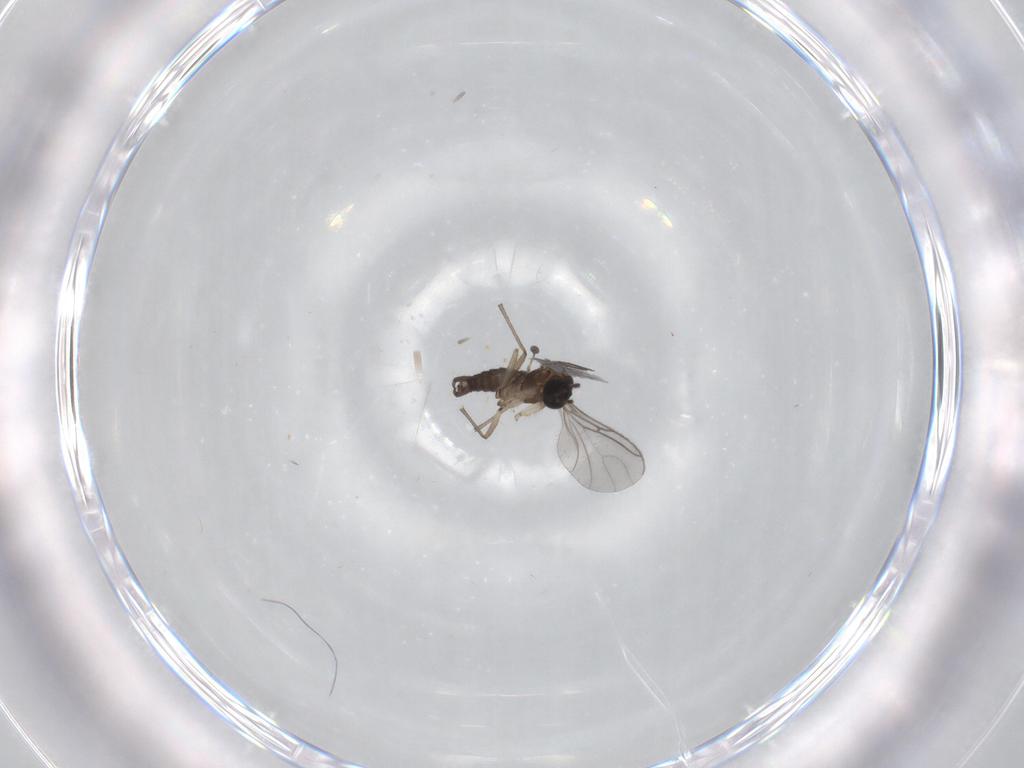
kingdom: Animalia
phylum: Arthropoda
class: Insecta
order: Diptera
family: Sciaridae
